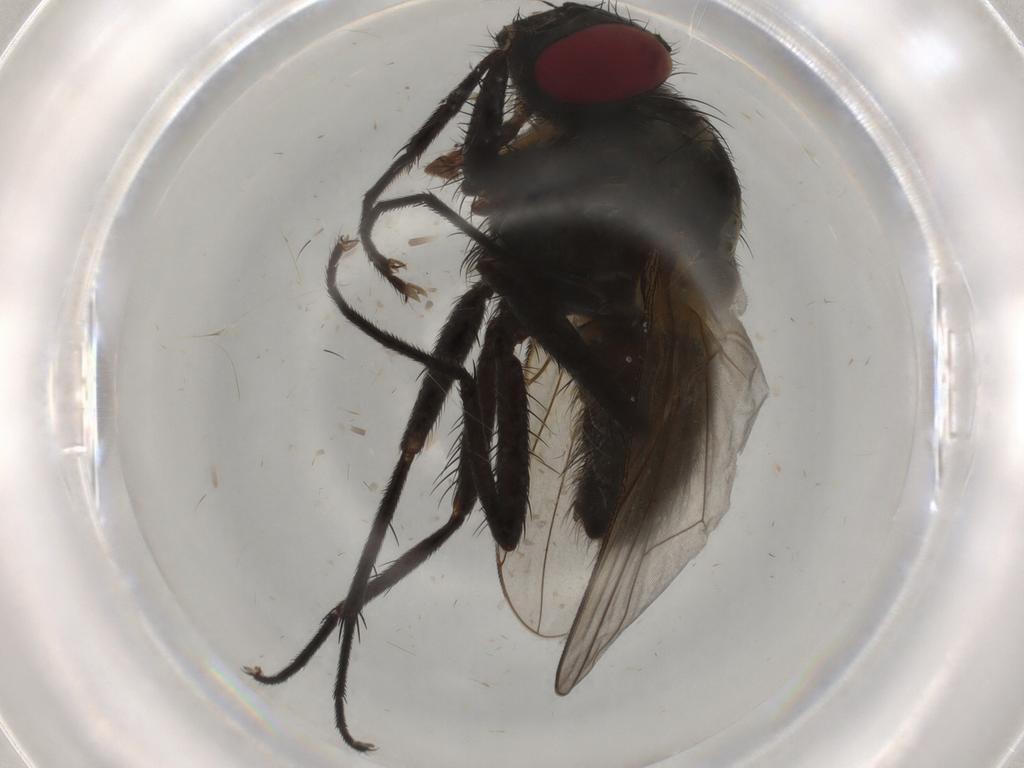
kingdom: Animalia
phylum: Arthropoda
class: Insecta
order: Diptera
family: Muscidae
